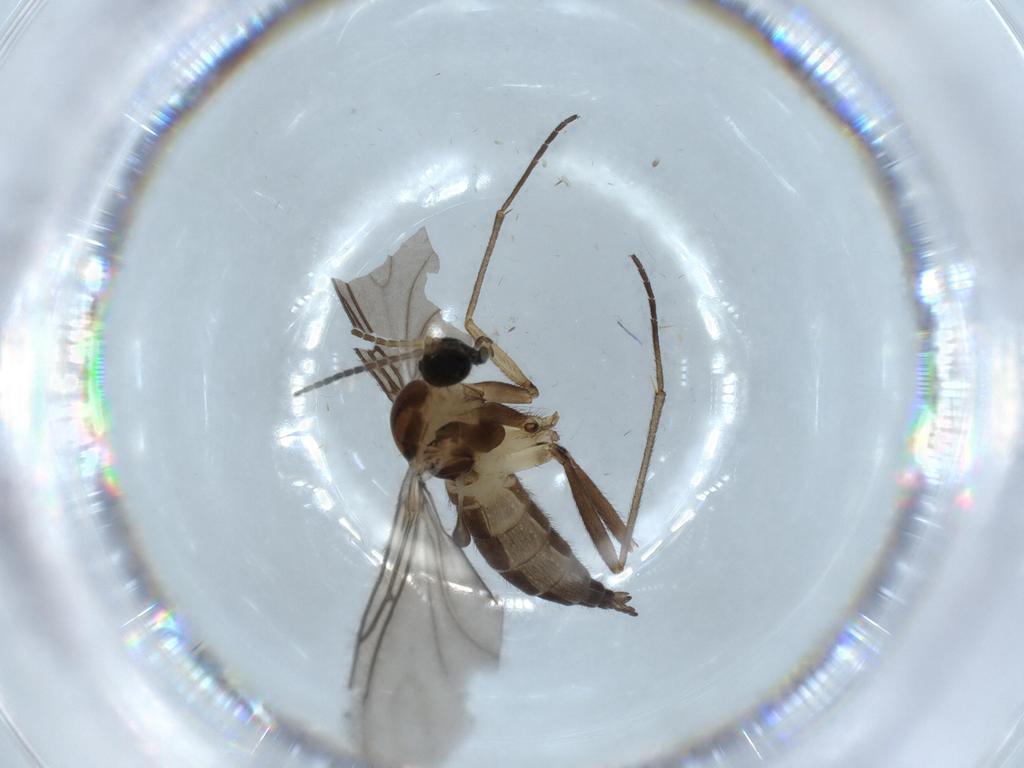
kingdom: Animalia
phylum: Arthropoda
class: Insecta
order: Diptera
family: Sciaridae
